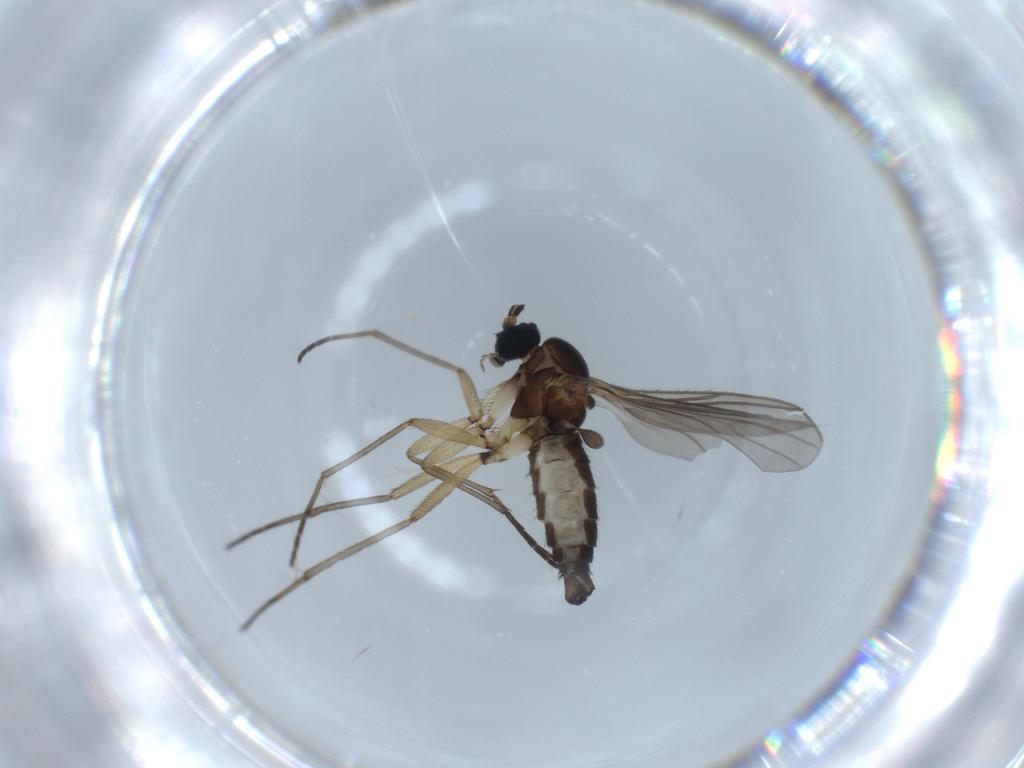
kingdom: Animalia
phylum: Arthropoda
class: Insecta
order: Diptera
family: Sciaridae
